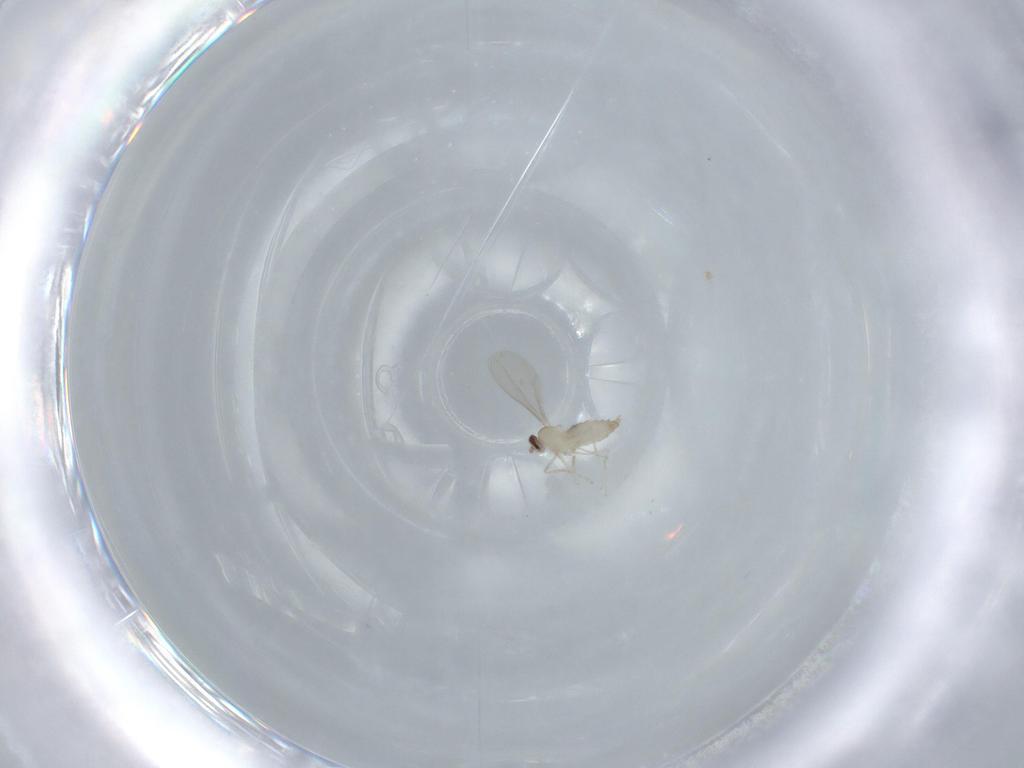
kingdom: Animalia
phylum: Arthropoda
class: Insecta
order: Diptera
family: Cecidomyiidae
